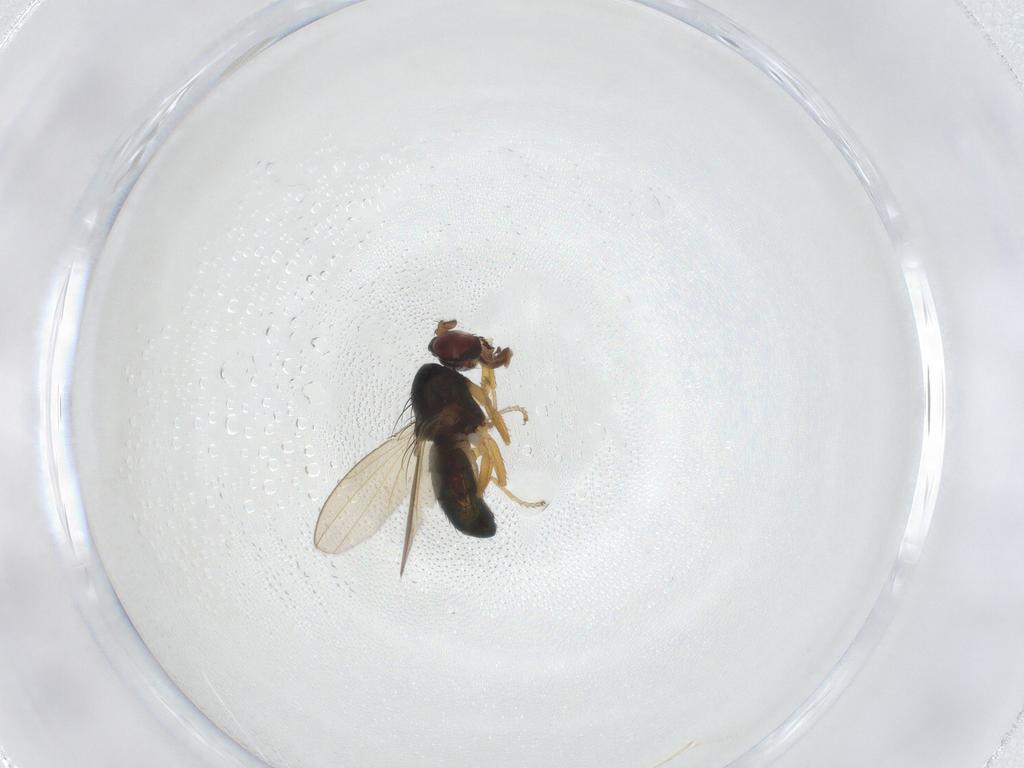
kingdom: Animalia
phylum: Arthropoda
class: Insecta
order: Diptera
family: Ephydridae
